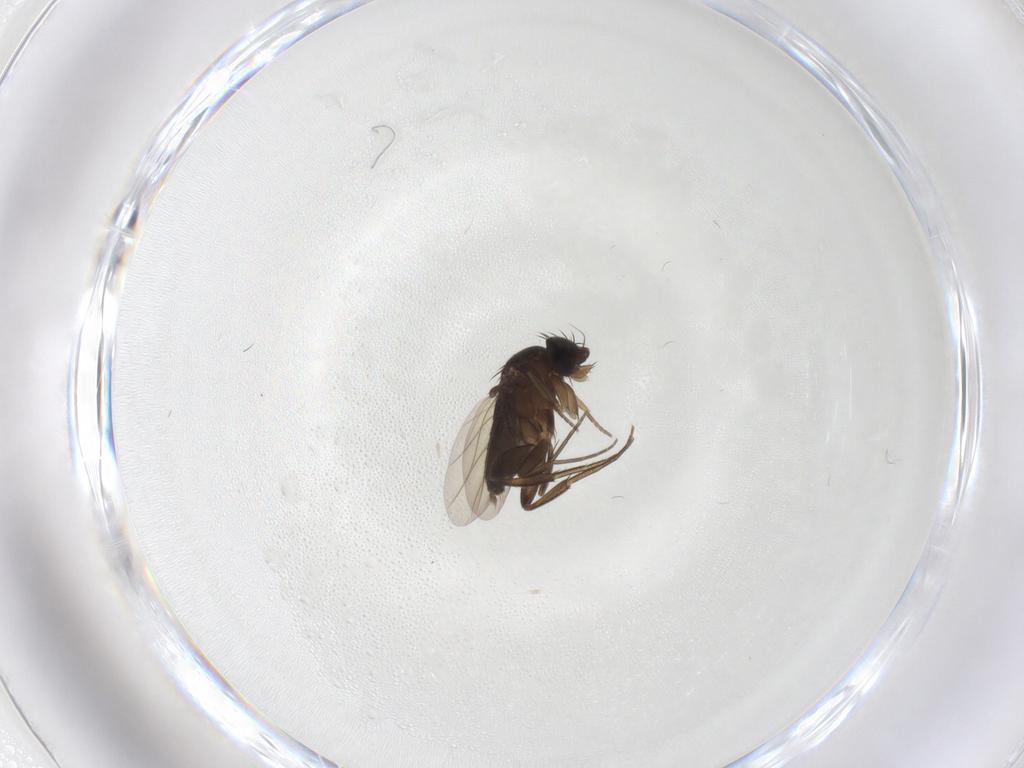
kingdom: Animalia
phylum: Arthropoda
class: Insecta
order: Diptera
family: Phoridae
